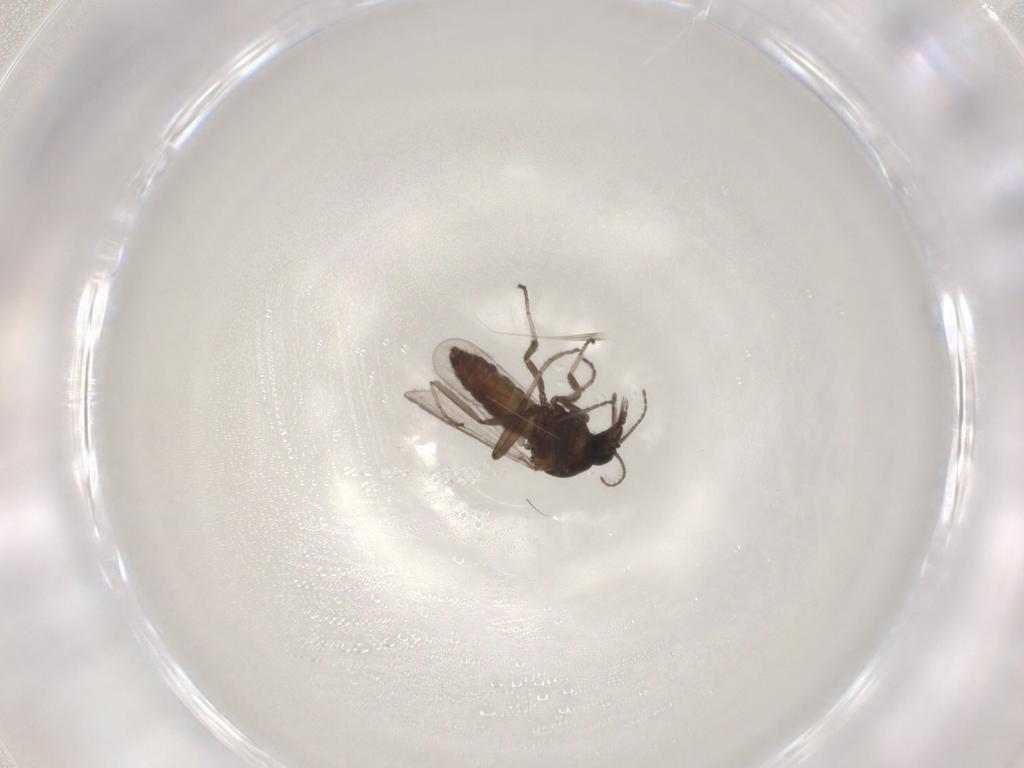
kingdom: Animalia
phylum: Arthropoda
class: Insecta
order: Diptera
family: Ceratopogonidae
